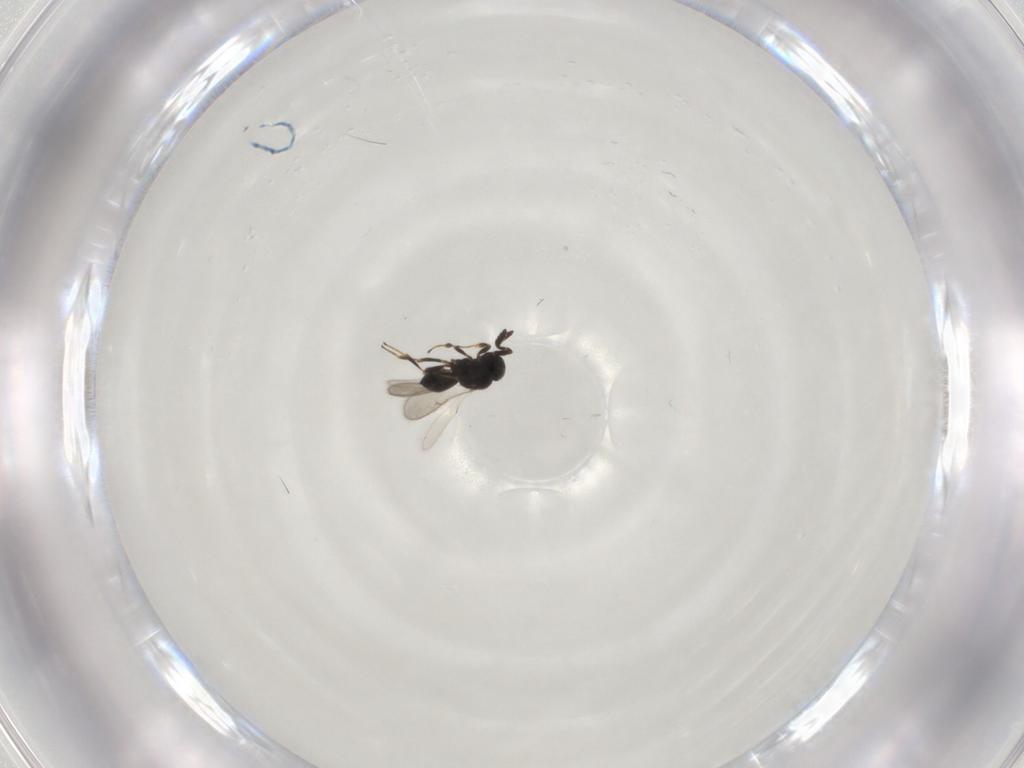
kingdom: Animalia
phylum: Arthropoda
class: Insecta
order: Hymenoptera
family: Scelionidae
